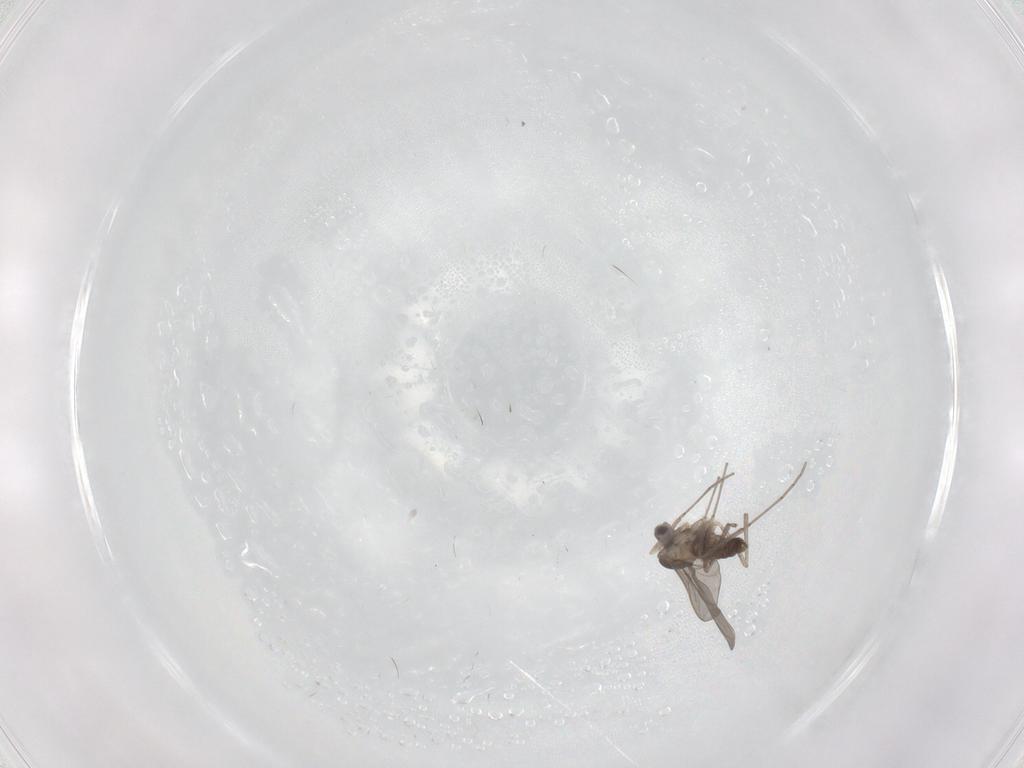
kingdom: Animalia
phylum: Arthropoda
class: Insecta
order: Diptera
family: Cecidomyiidae
